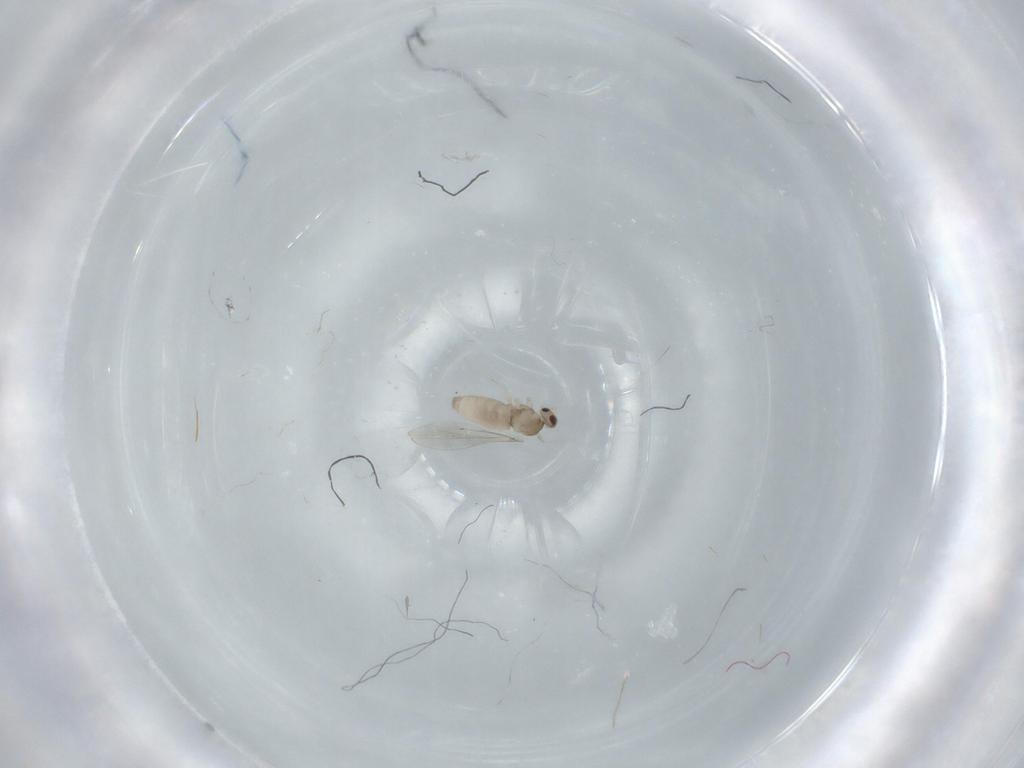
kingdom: Animalia
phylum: Arthropoda
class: Insecta
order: Diptera
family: Cecidomyiidae
